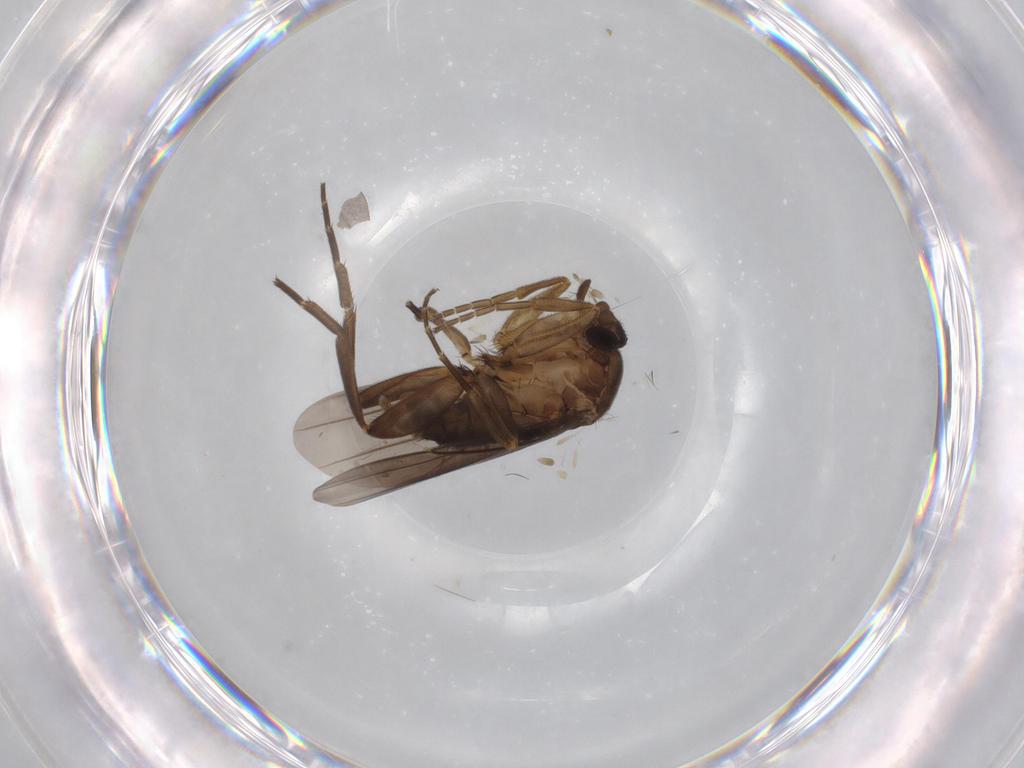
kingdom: Animalia
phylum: Arthropoda
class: Insecta
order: Diptera
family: Phoridae
